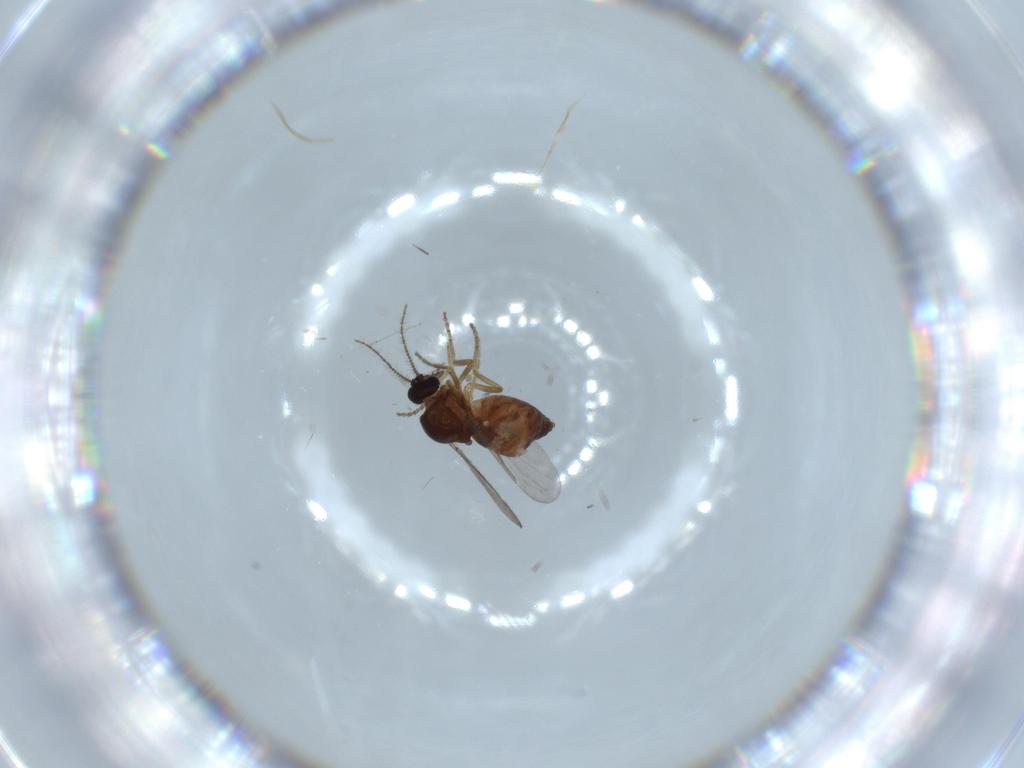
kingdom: Animalia
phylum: Arthropoda
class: Insecta
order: Diptera
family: Ceratopogonidae
